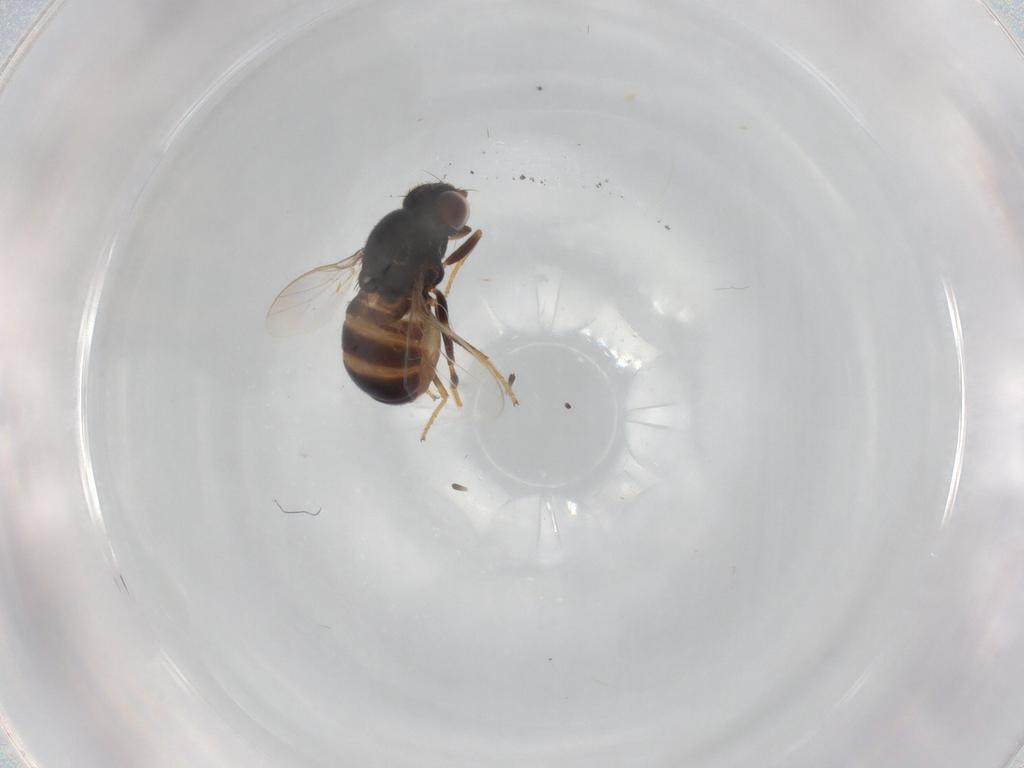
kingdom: Animalia
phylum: Arthropoda
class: Insecta
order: Diptera
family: Chloropidae
